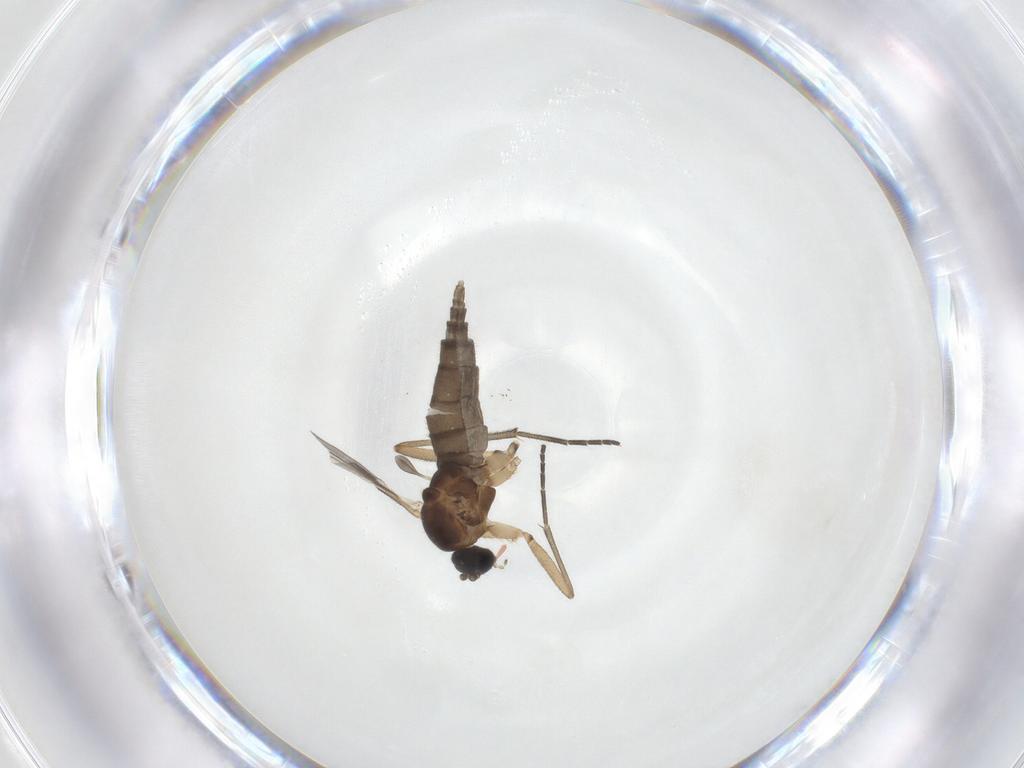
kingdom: Animalia
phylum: Arthropoda
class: Insecta
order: Diptera
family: Sciaridae
